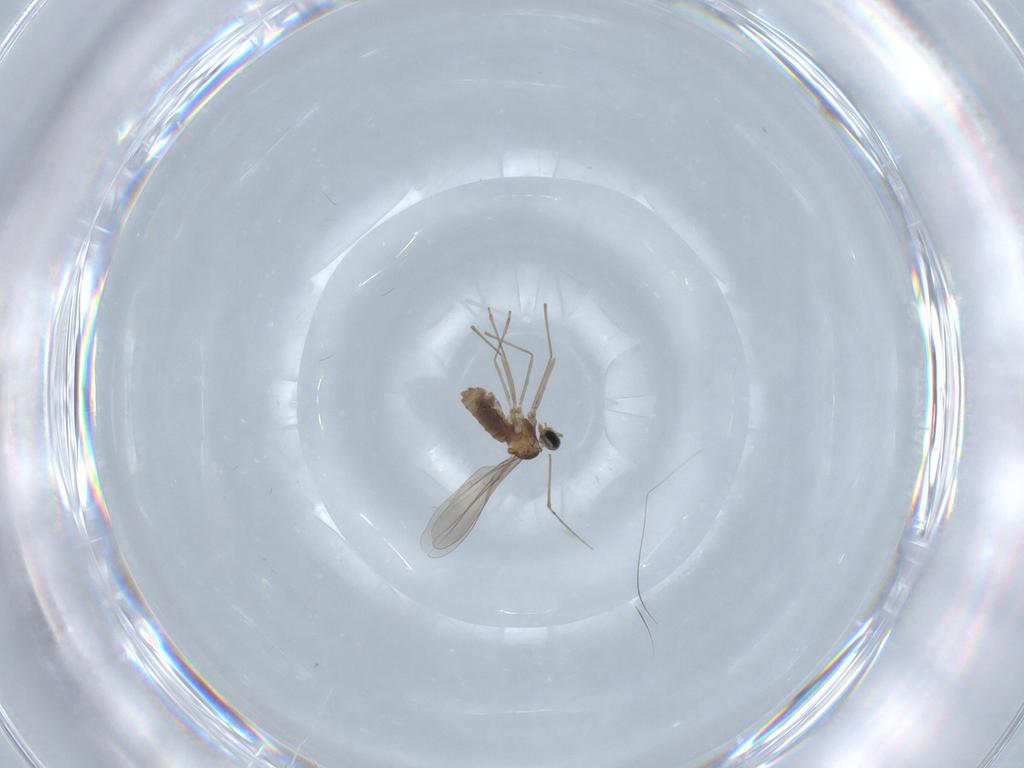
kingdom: Animalia
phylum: Arthropoda
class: Insecta
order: Diptera
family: Cecidomyiidae
